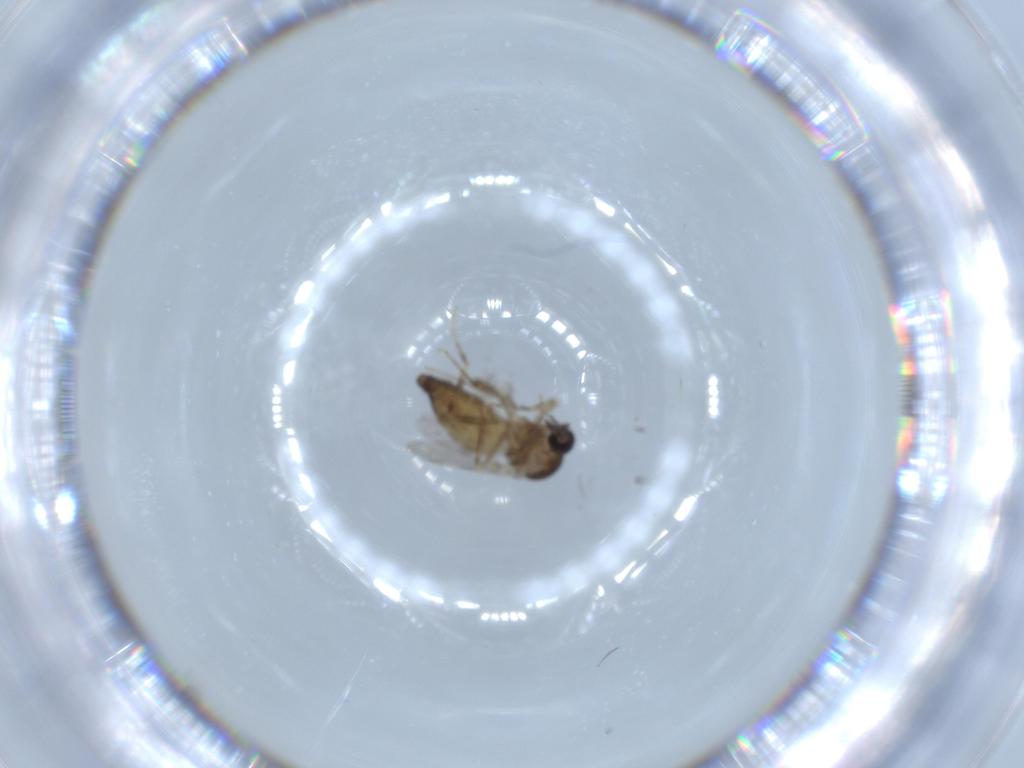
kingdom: Animalia
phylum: Arthropoda
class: Insecta
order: Diptera
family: Ceratopogonidae
